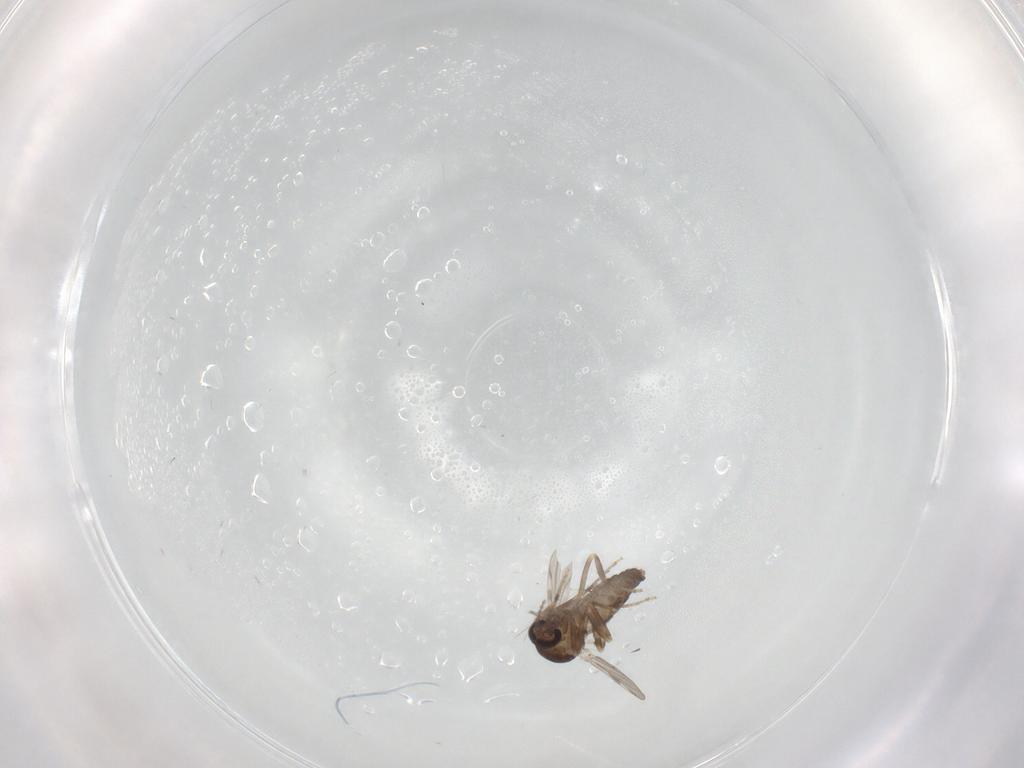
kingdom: Animalia
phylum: Arthropoda
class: Insecta
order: Diptera
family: Ceratopogonidae
